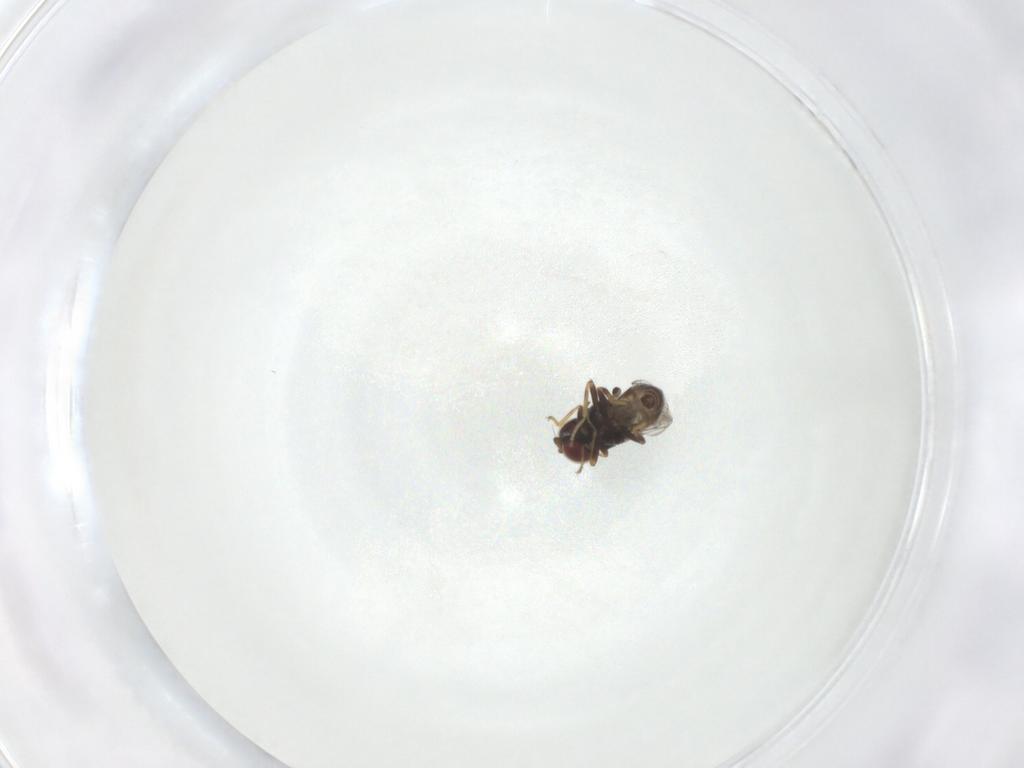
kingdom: Animalia
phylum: Arthropoda
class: Insecta
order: Diptera
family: Chloropidae
